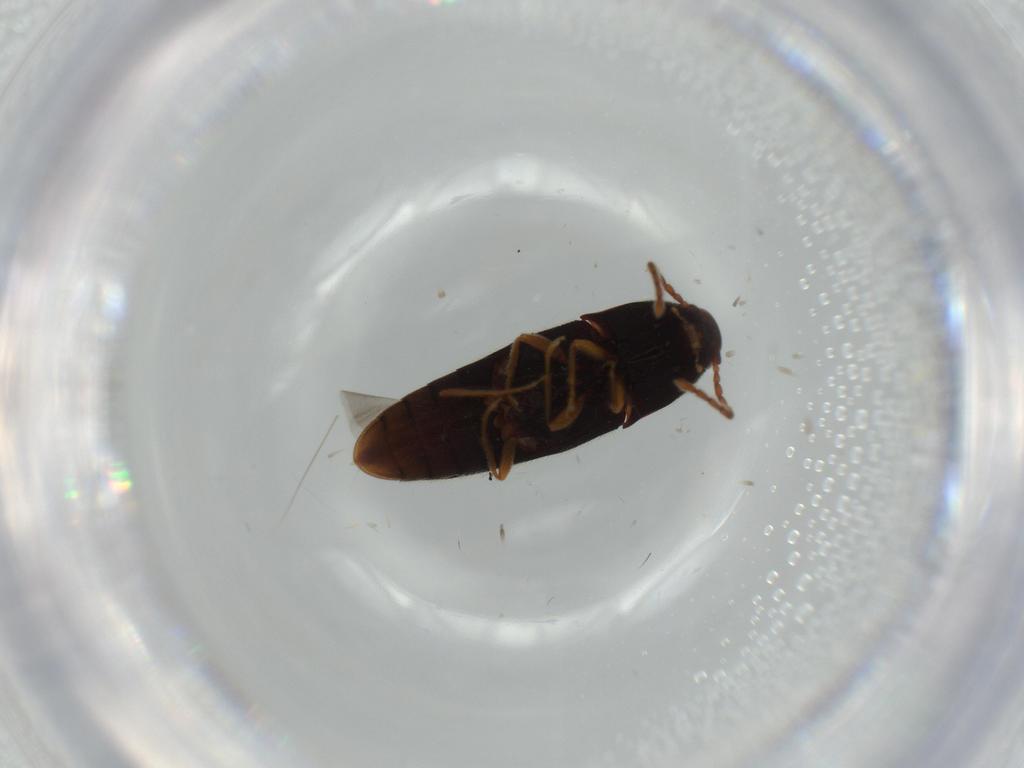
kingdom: Animalia
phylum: Arthropoda
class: Insecta
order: Coleoptera
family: Elateridae
